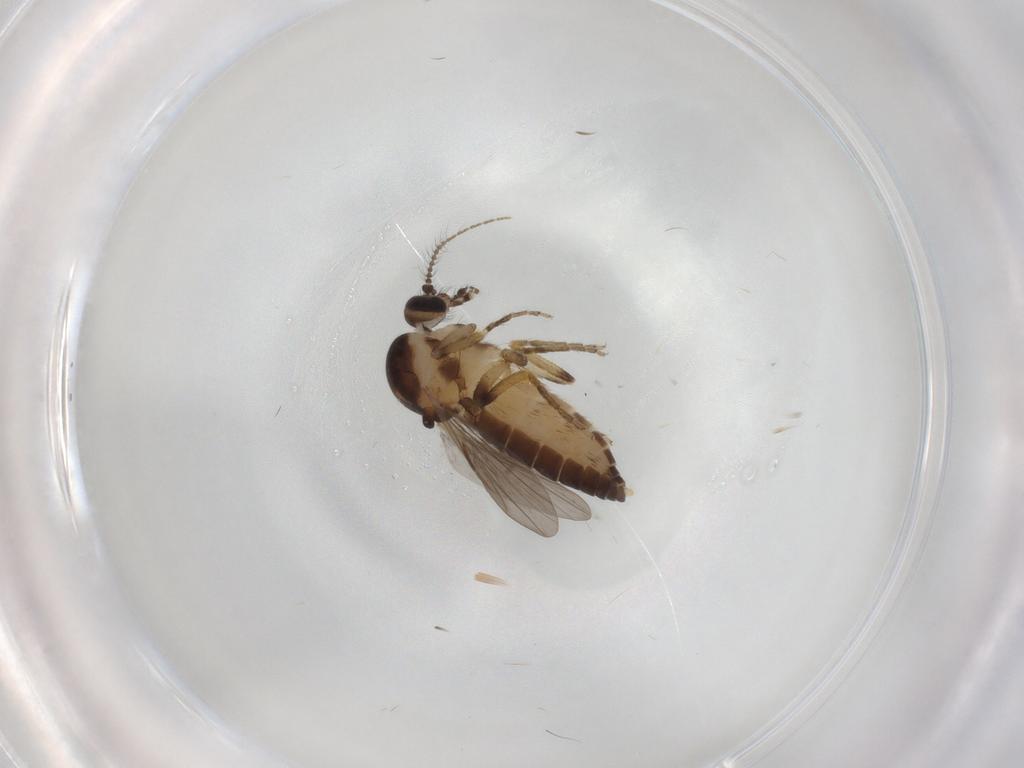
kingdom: Animalia
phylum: Arthropoda
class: Insecta
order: Diptera
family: Ceratopogonidae
